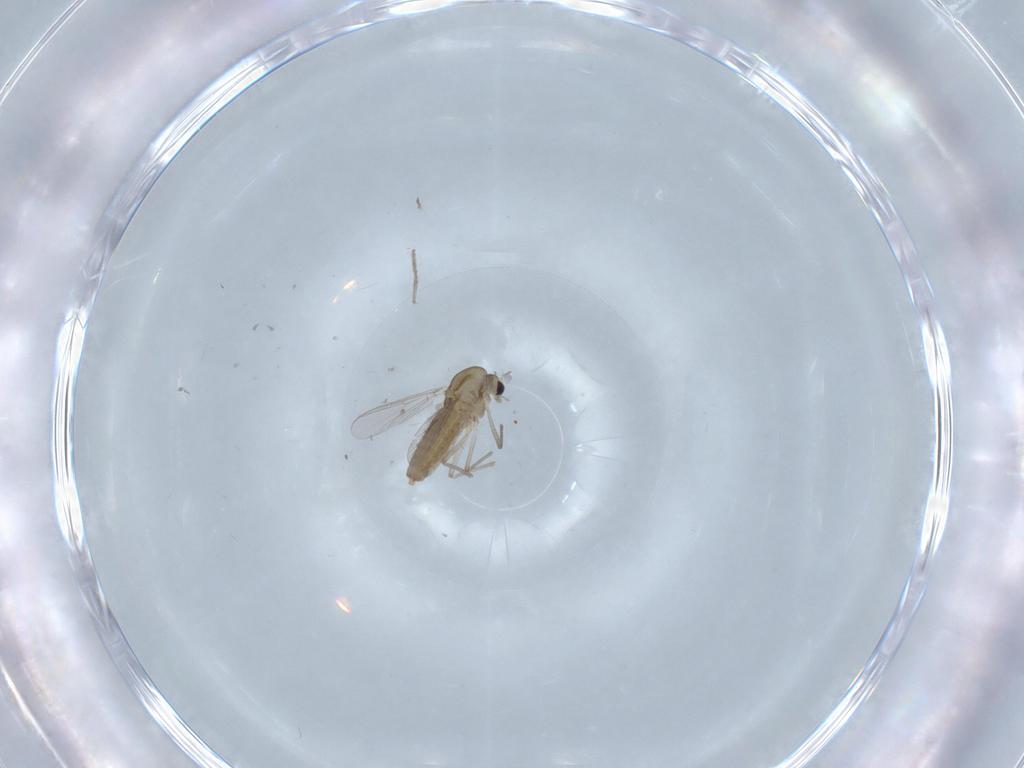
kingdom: Animalia
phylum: Arthropoda
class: Insecta
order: Diptera
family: Chironomidae
